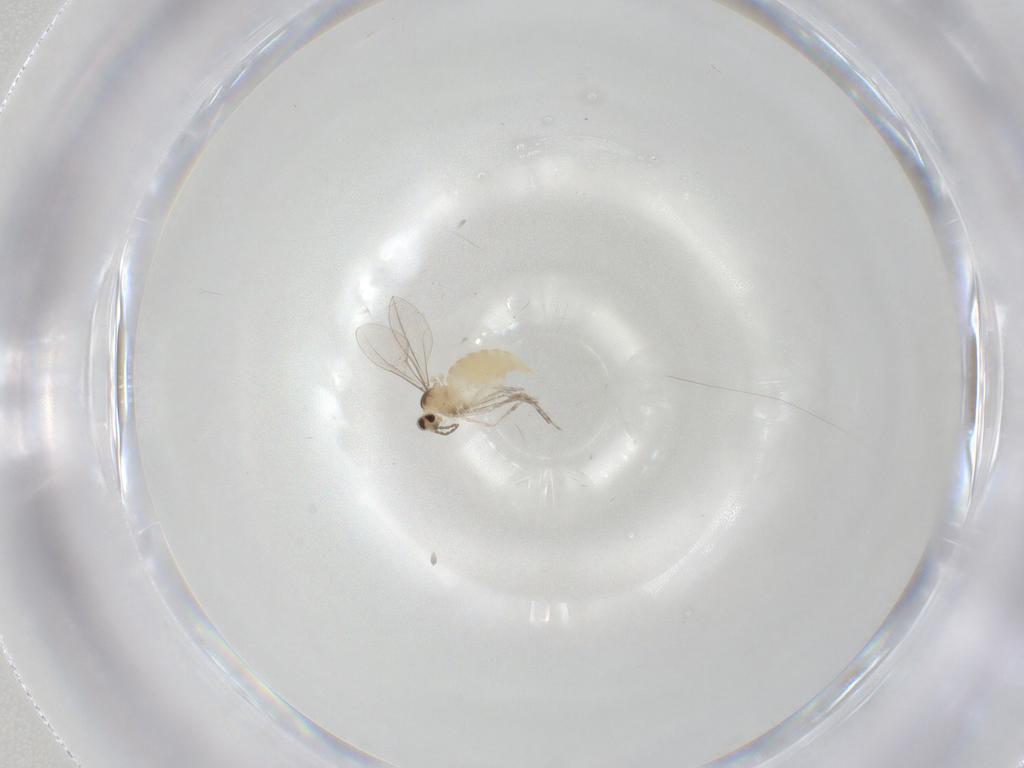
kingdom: Animalia
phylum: Arthropoda
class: Insecta
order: Diptera
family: Cecidomyiidae
